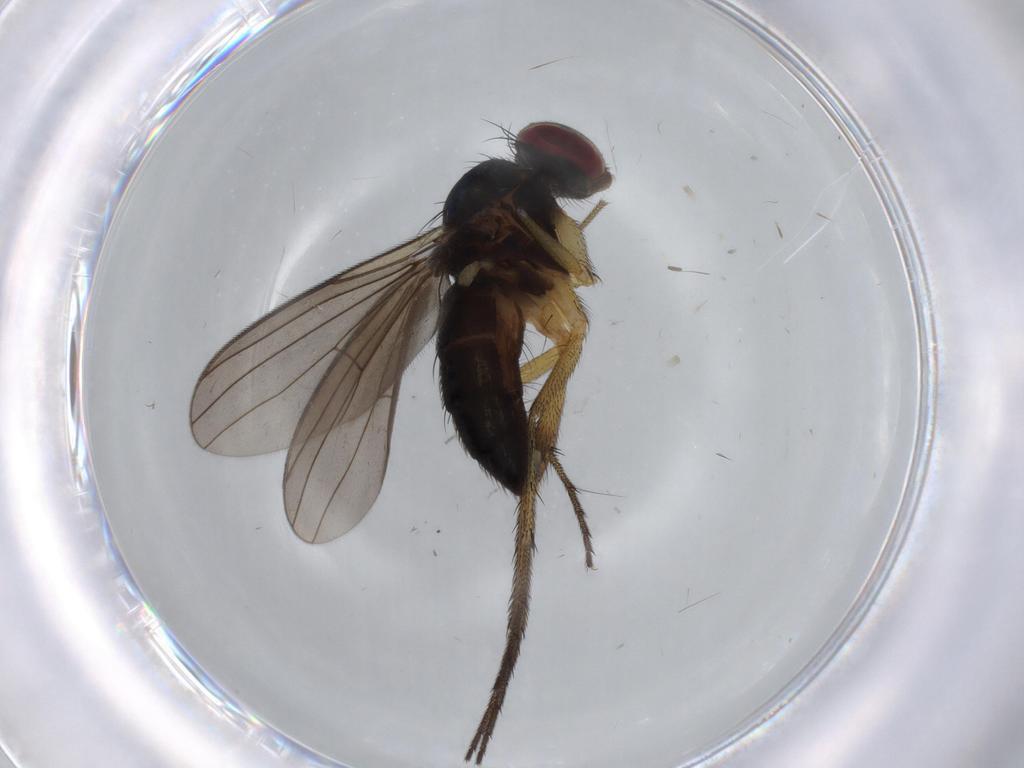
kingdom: Animalia
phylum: Arthropoda
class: Insecta
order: Diptera
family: Cecidomyiidae
